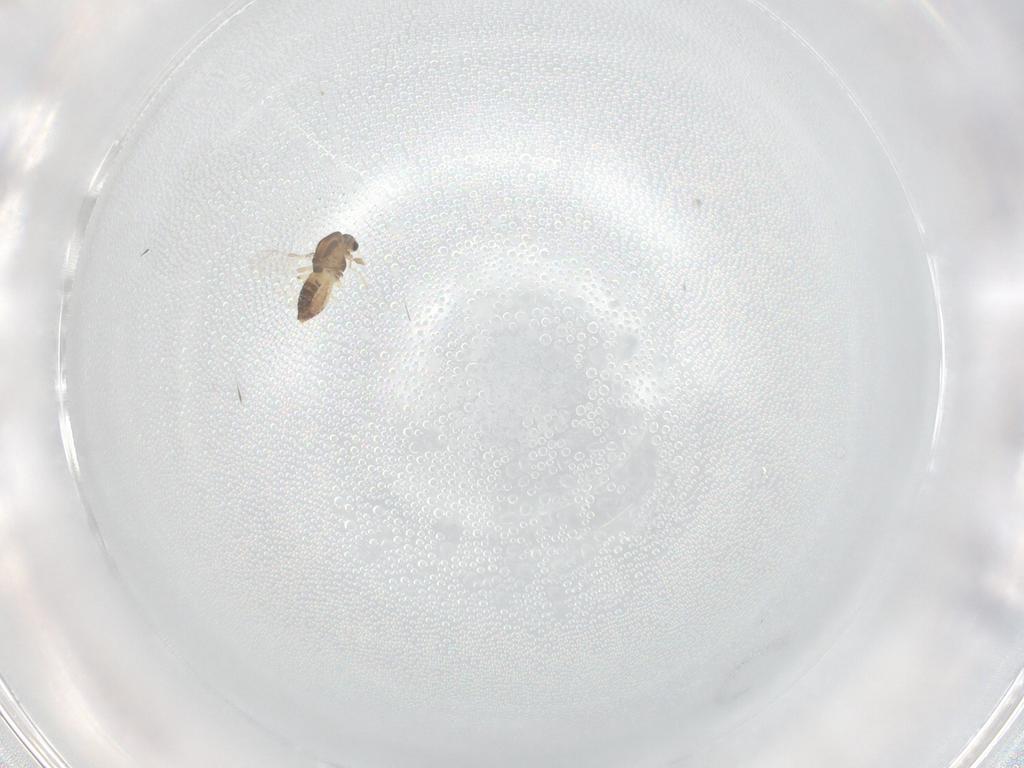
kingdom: Animalia
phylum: Arthropoda
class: Insecta
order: Diptera
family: Chironomidae
